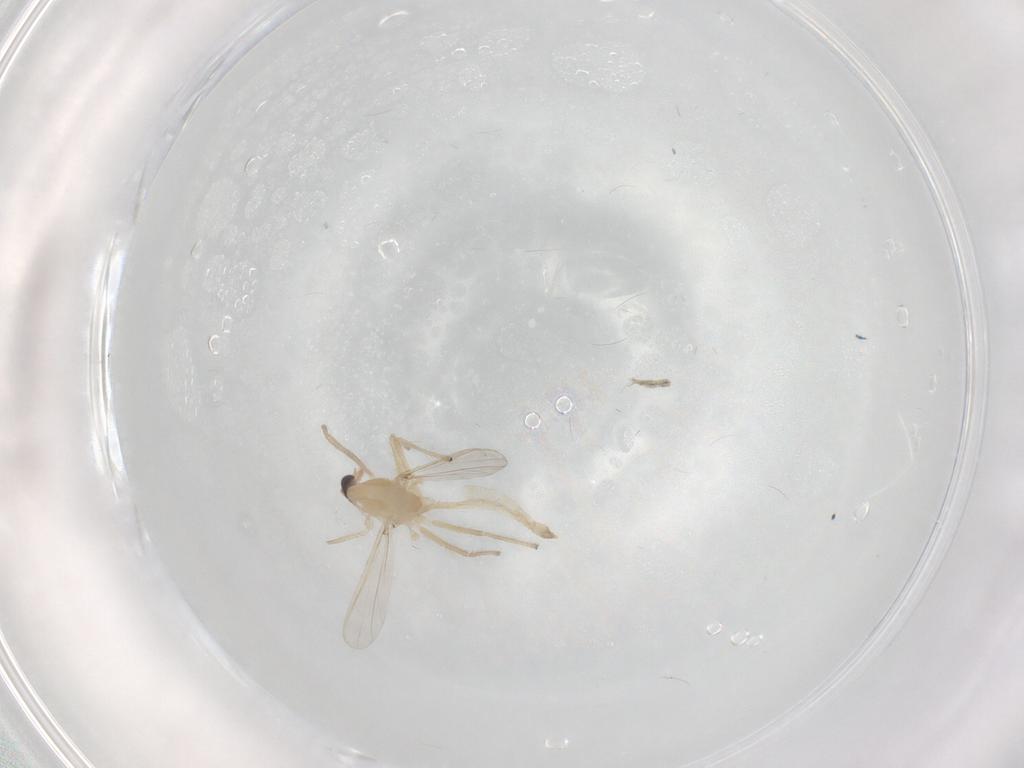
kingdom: Animalia
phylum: Arthropoda
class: Insecta
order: Diptera
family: Chironomidae
